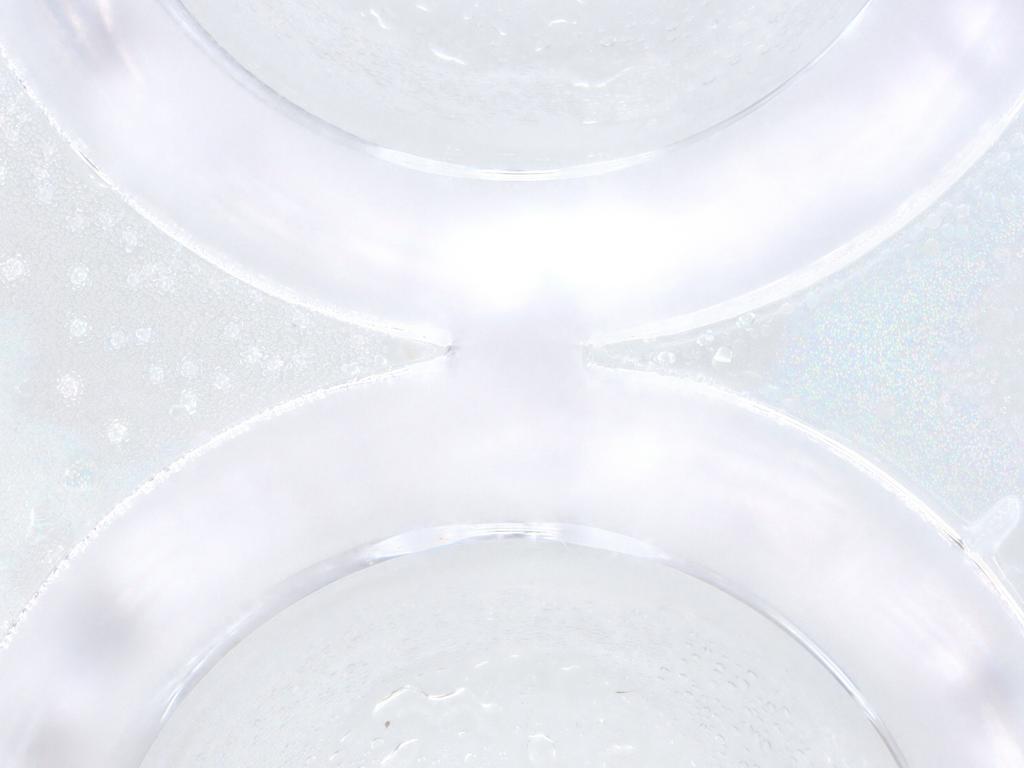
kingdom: Animalia
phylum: Arthropoda
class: Insecta
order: Diptera
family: Cecidomyiidae
